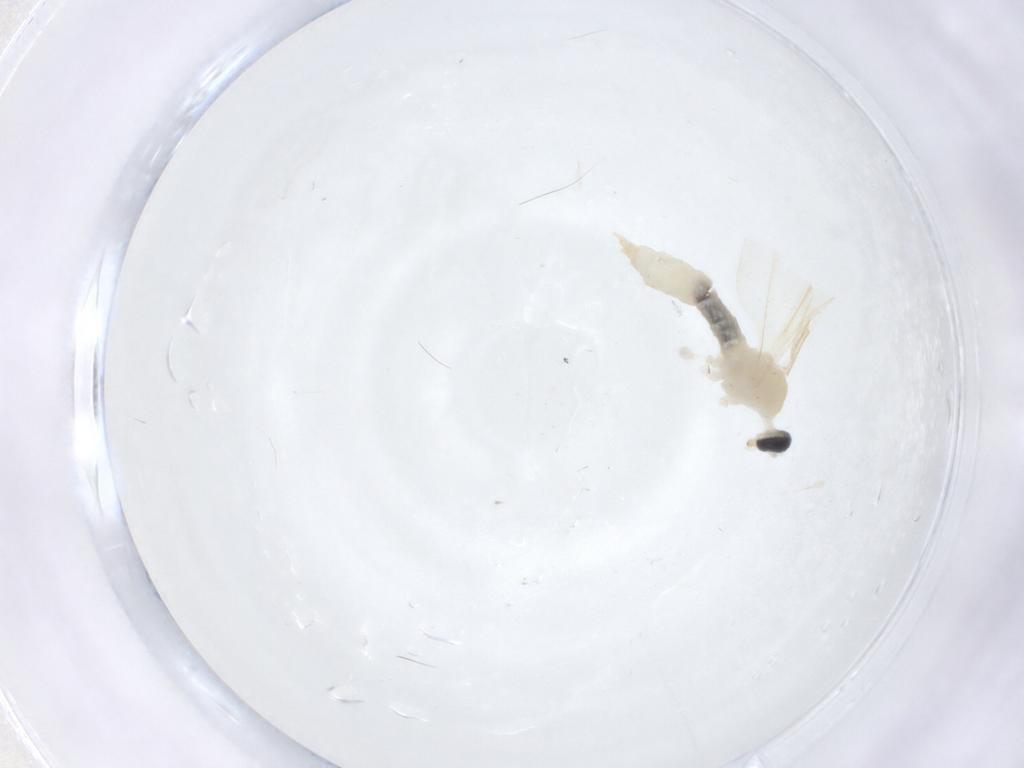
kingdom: Animalia
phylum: Arthropoda
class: Insecta
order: Diptera
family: Cecidomyiidae
